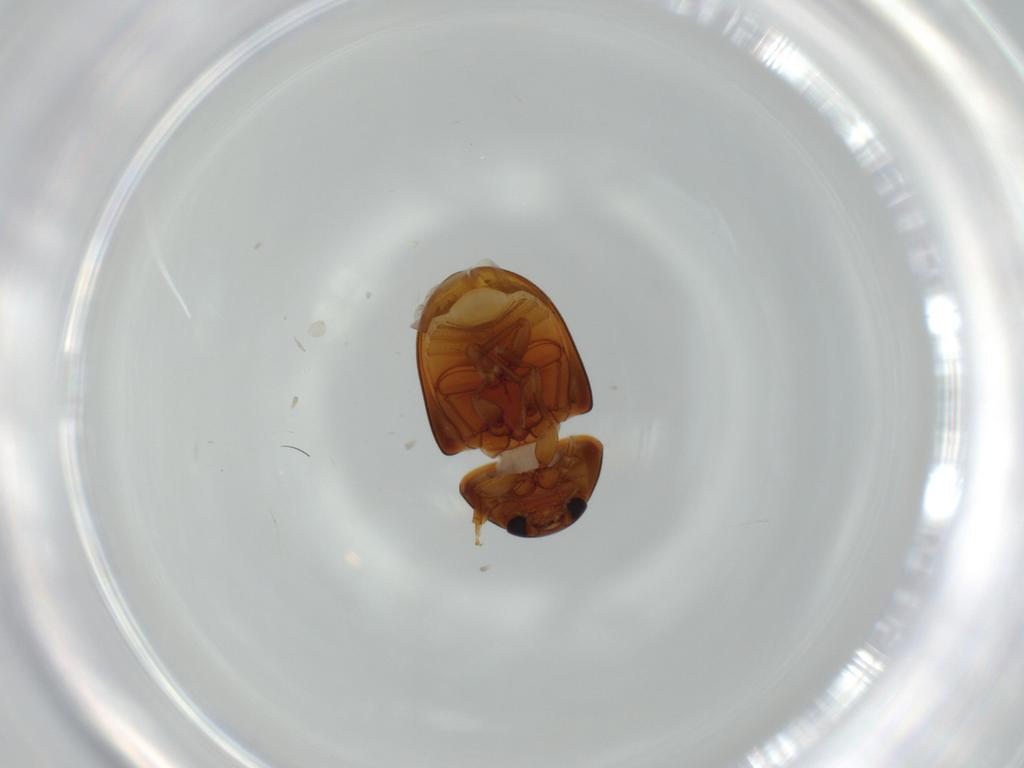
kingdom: Animalia
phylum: Arthropoda
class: Insecta
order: Coleoptera
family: Phalacridae
